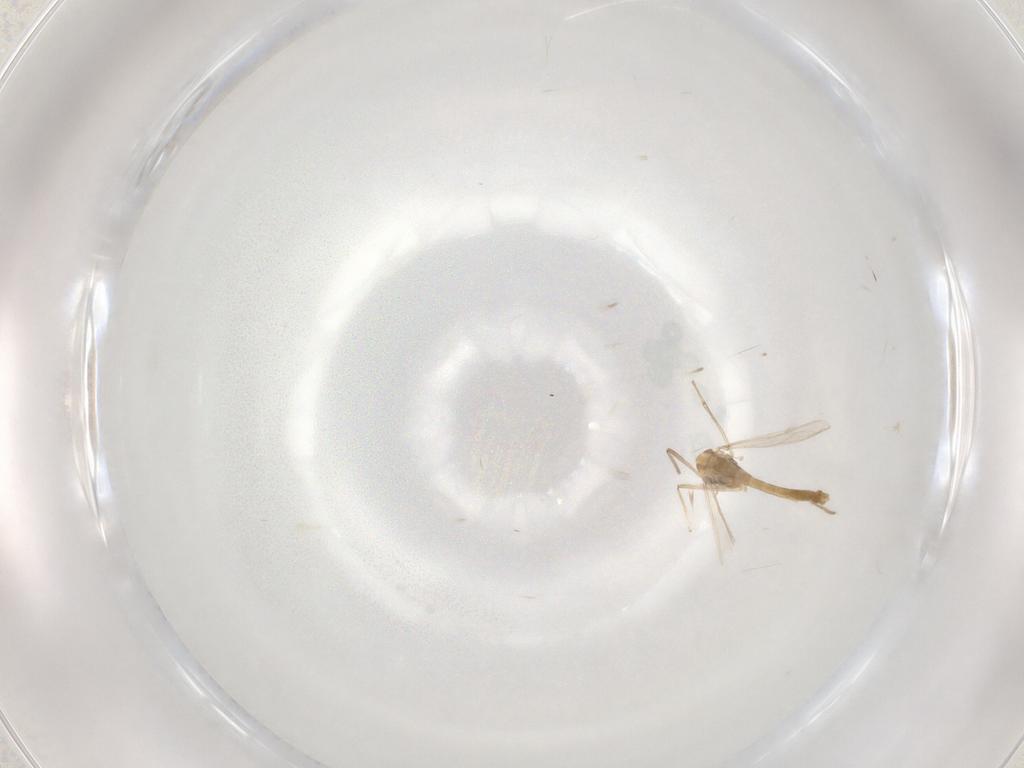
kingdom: Animalia
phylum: Arthropoda
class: Insecta
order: Diptera
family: Chironomidae
